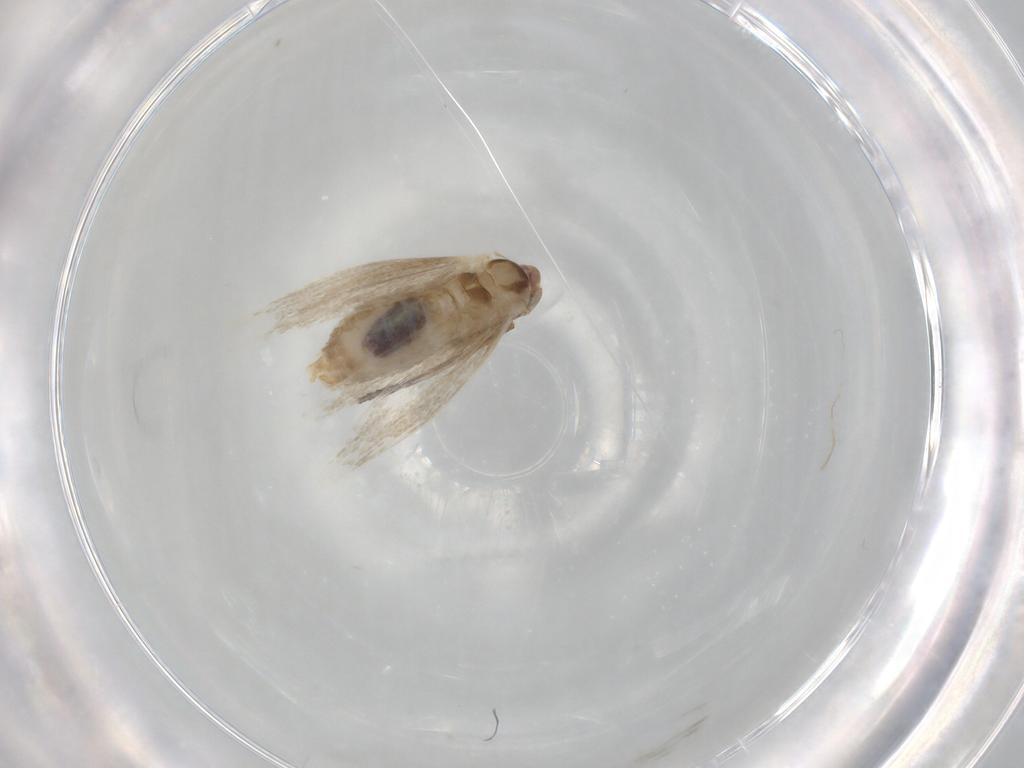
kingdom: Animalia
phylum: Arthropoda
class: Insecta
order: Lepidoptera
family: Bucculatricidae
